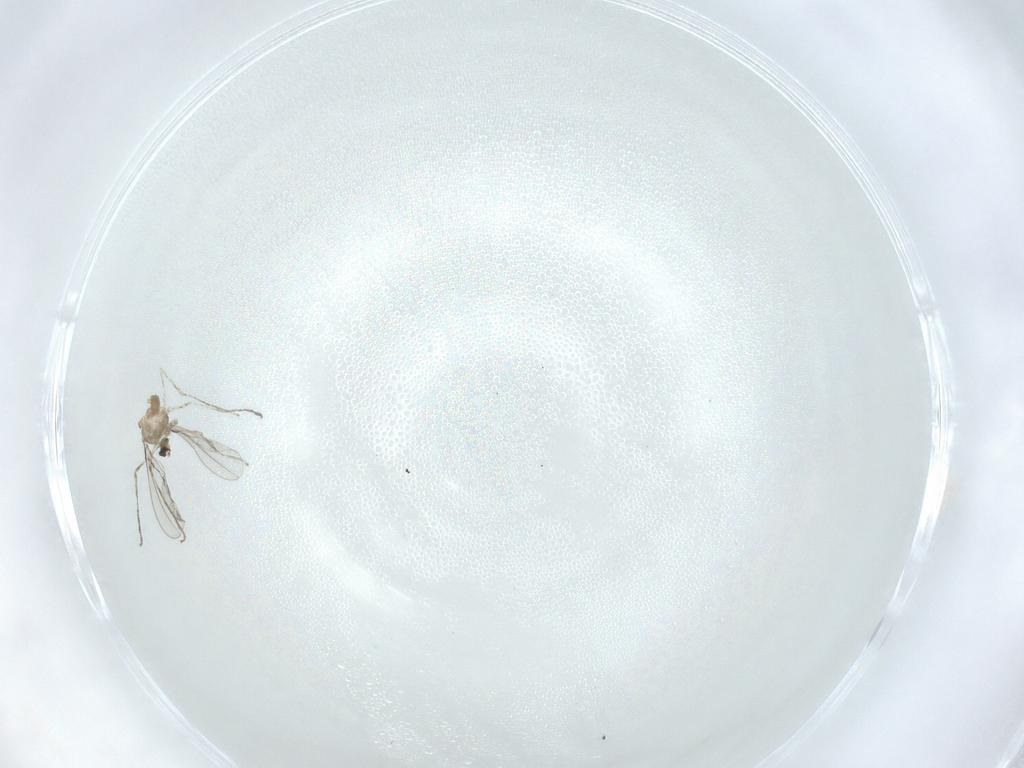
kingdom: Animalia
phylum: Arthropoda
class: Insecta
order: Diptera
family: Cecidomyiidae
